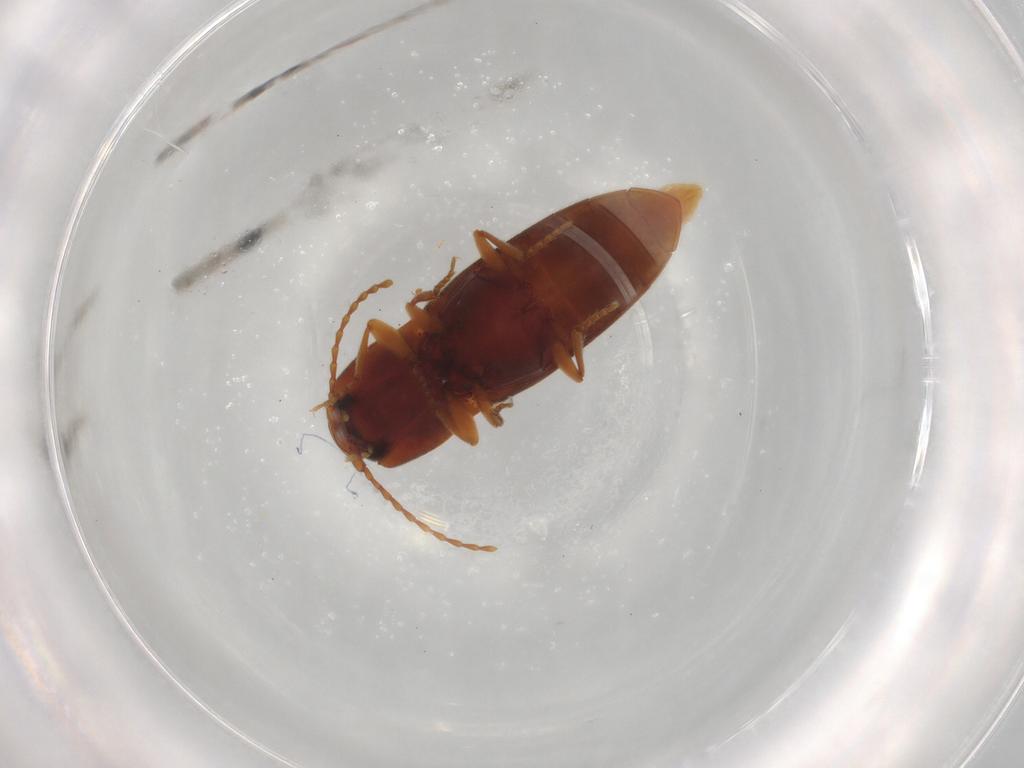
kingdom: Animalia
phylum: Arthropoda
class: Insecta
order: Coleoptera
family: Elateridae
